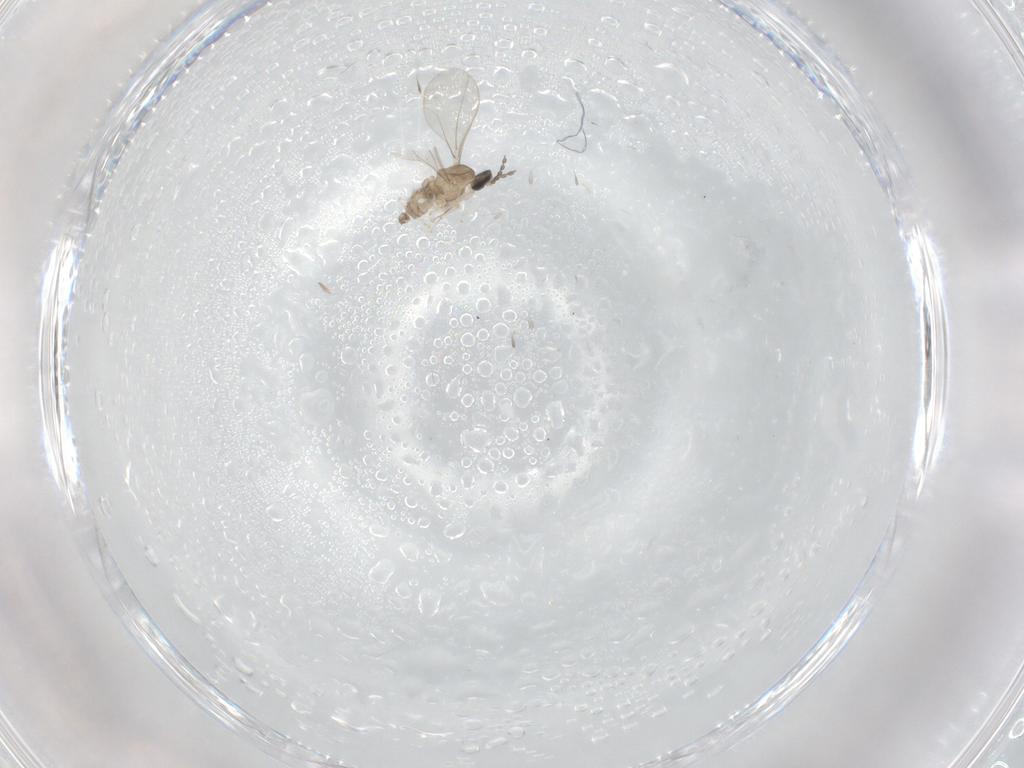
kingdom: Animalia
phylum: Arthropoda
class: Insecta
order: Diptera
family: Cecidomyiidae
